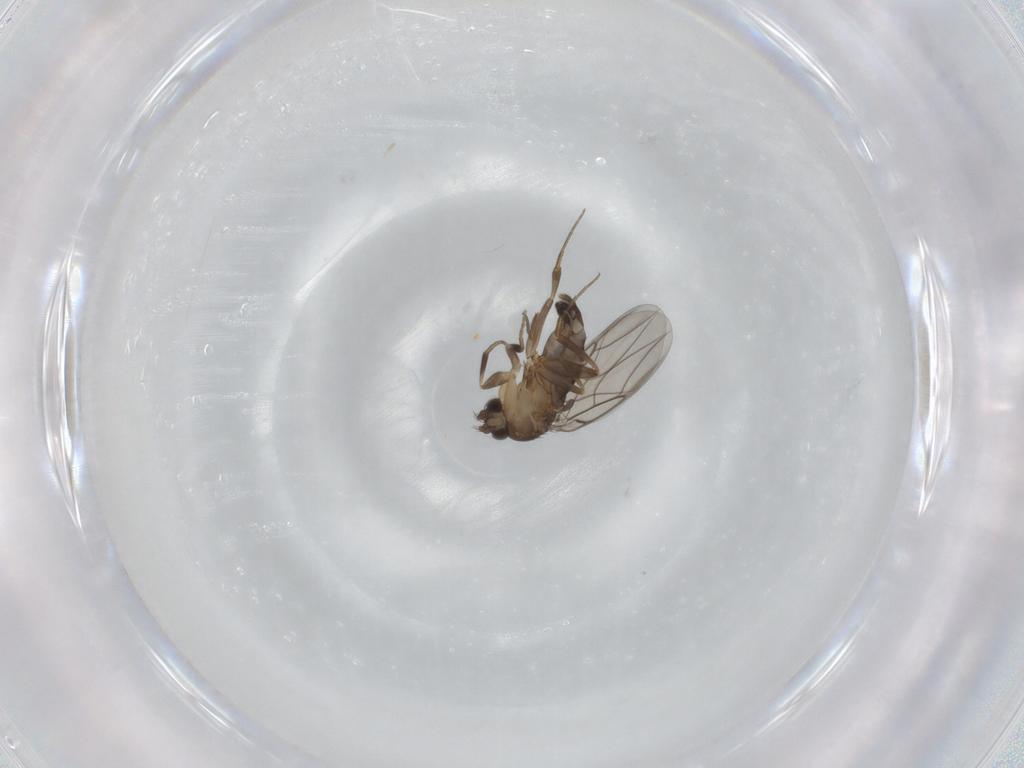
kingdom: Animalia
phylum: Arthropoda
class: Insecta
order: Diptera
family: Phoridae
